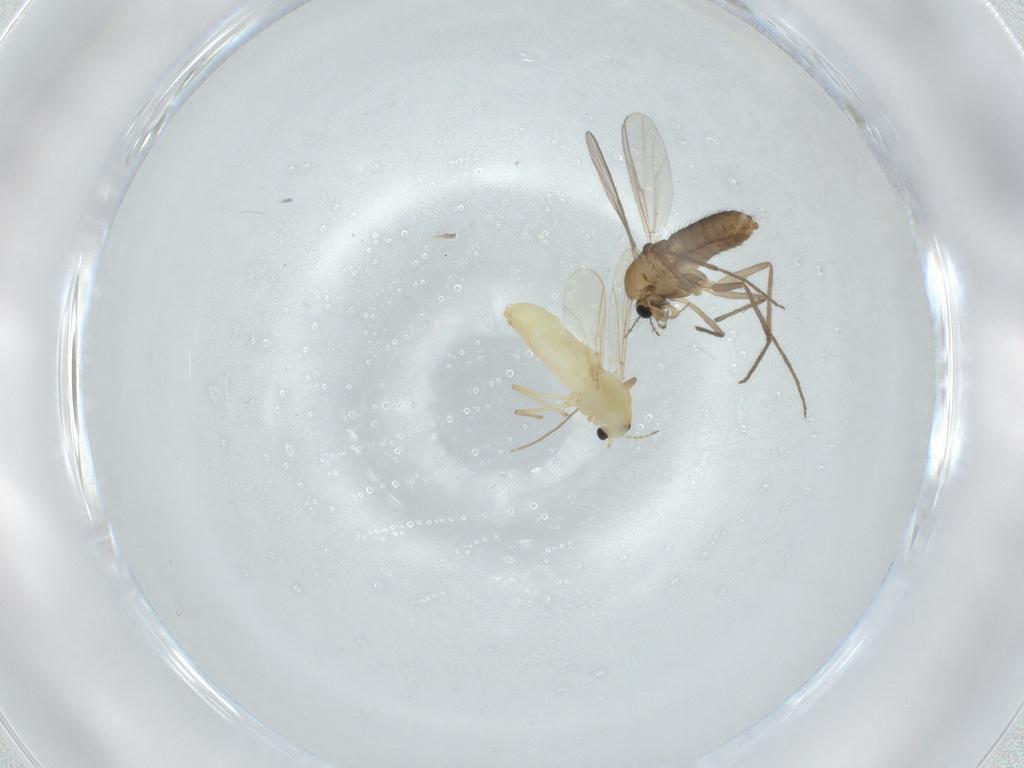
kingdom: Animalia
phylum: Arthropoda
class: Insecta
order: Diptera
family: Chironomidae
